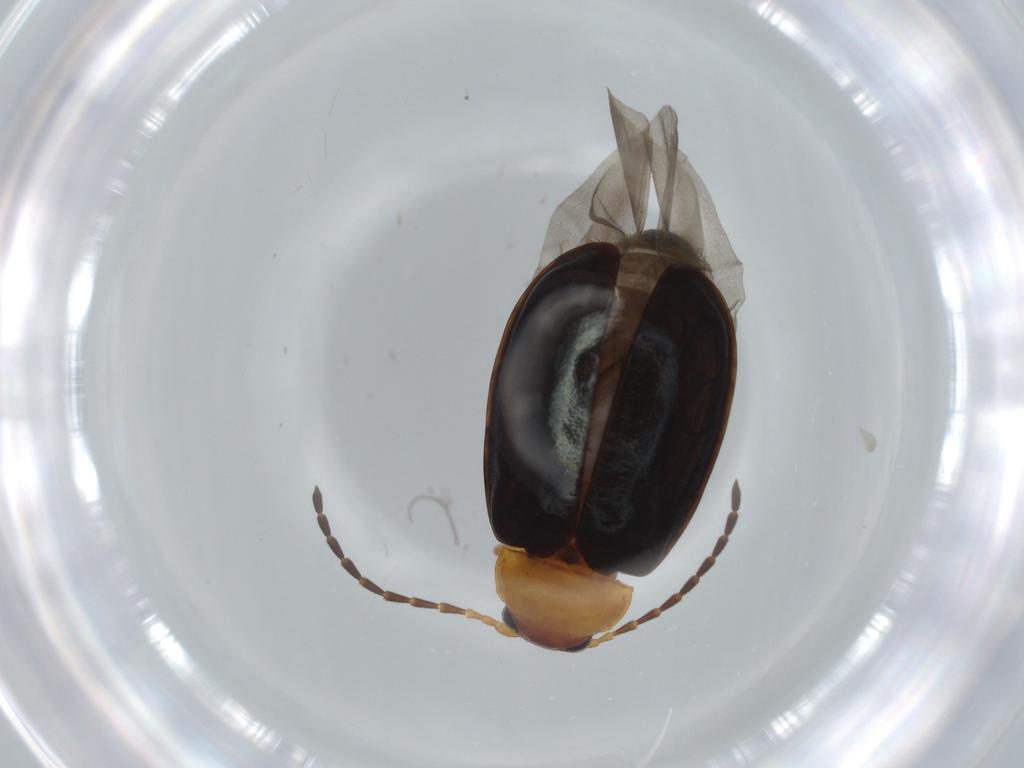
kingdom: Animalia
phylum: Arthropoda
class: Insecta
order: Coleoptera
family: Chrysomelidae
